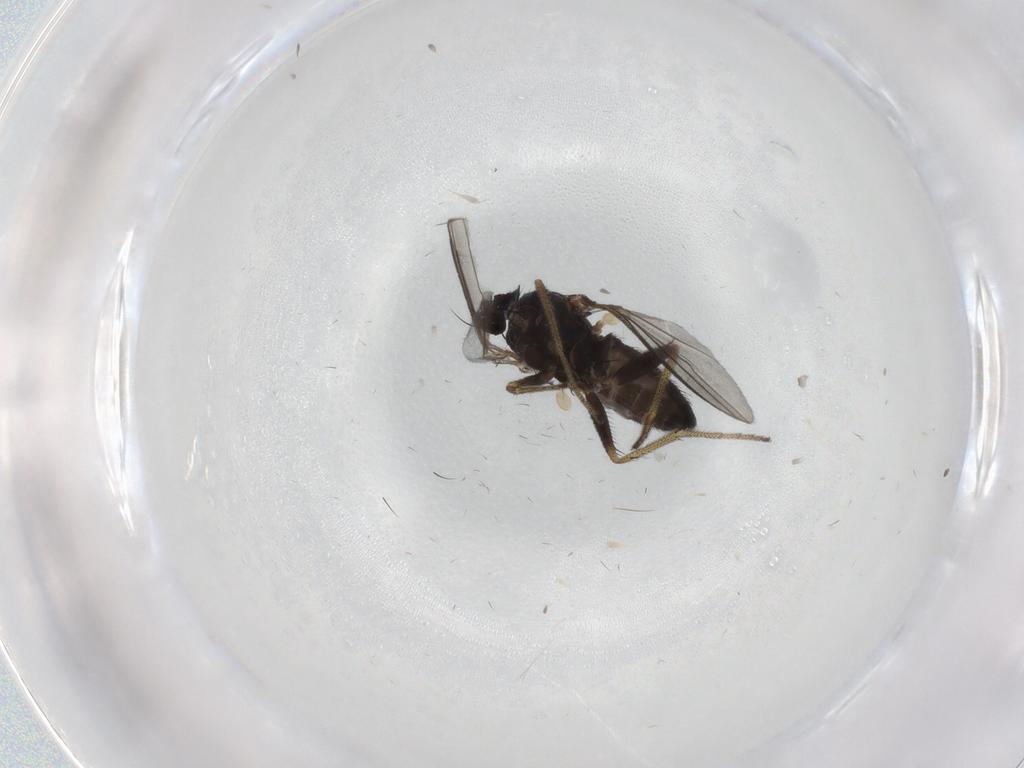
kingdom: Animalia
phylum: Arthropoda
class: Insecta
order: Diptera
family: Dolichopodidae
